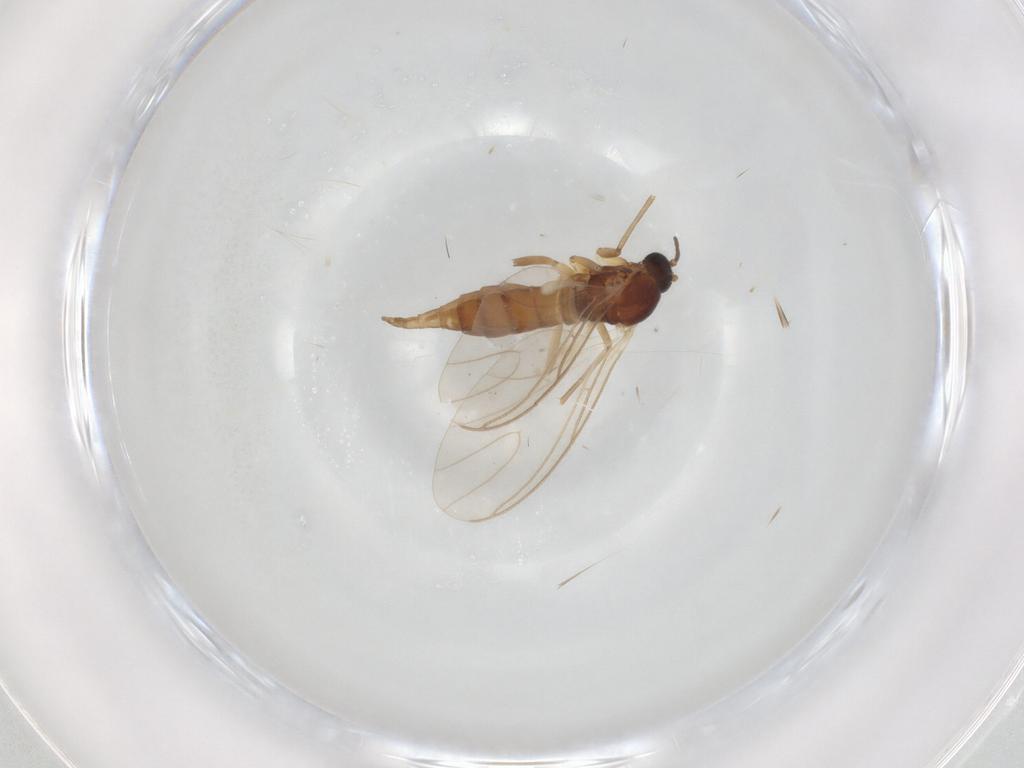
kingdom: Animalia
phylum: Arthropoda
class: Insecta
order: Diptera
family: Sciaridae
